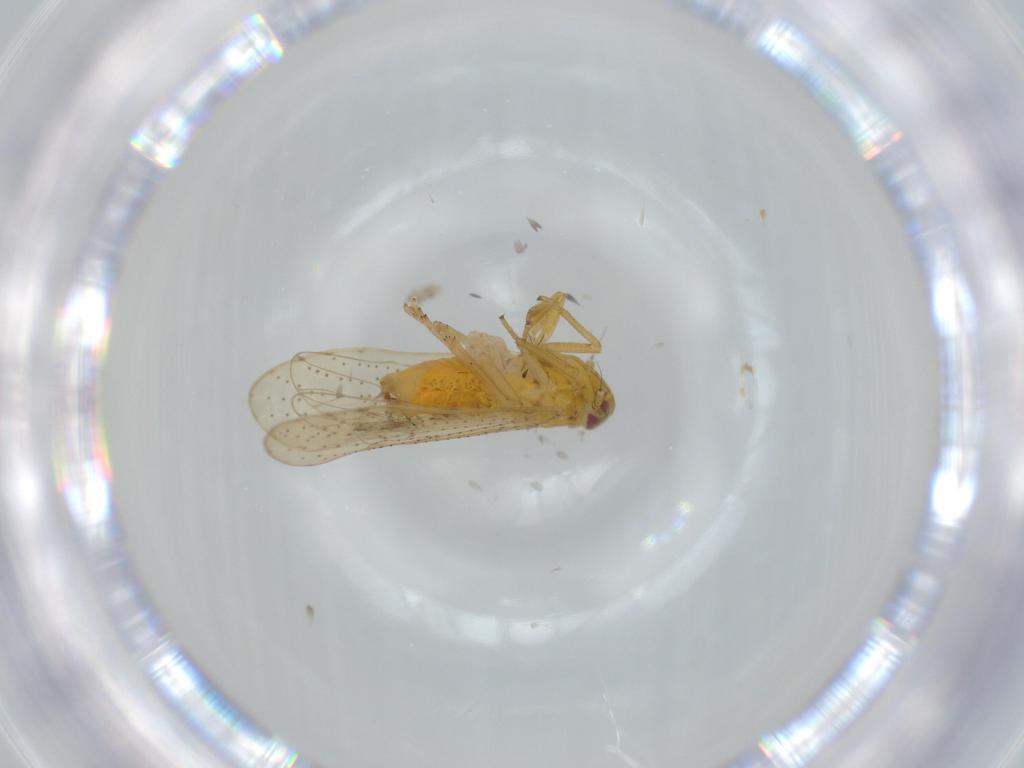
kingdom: Animalia
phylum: Arthropoda
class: Insecta
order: Hemiptera
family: Delphacidae
